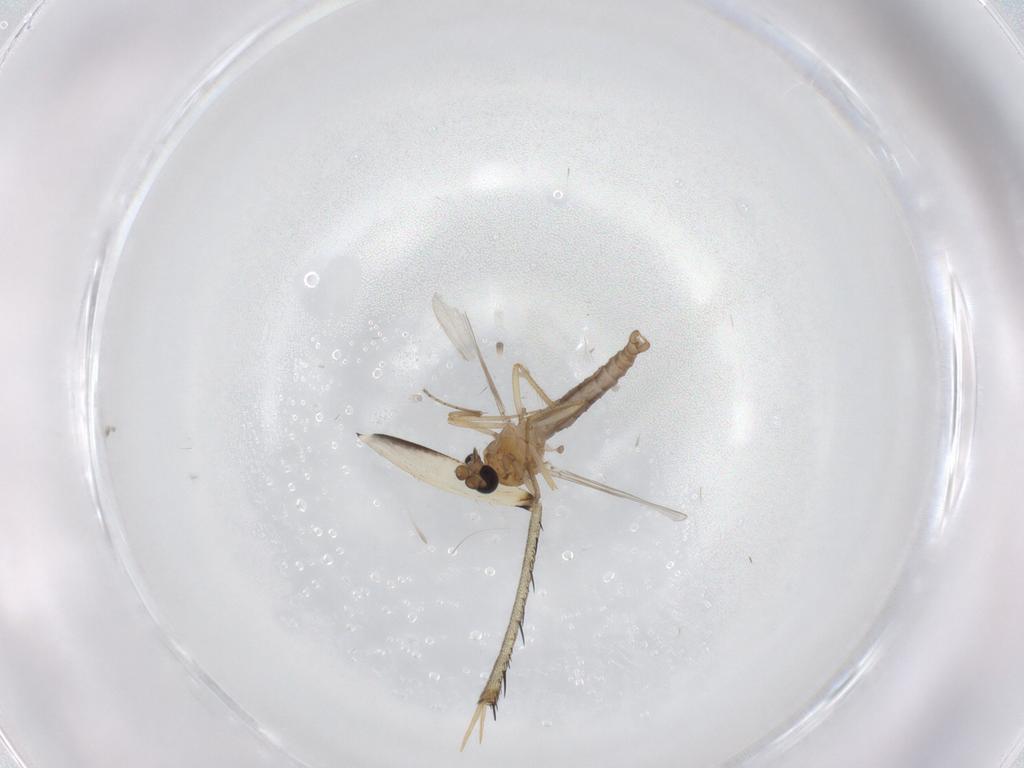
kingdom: Animalia
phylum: Arthropoda
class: Insecta
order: Diptera
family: Ceratopogonidae
